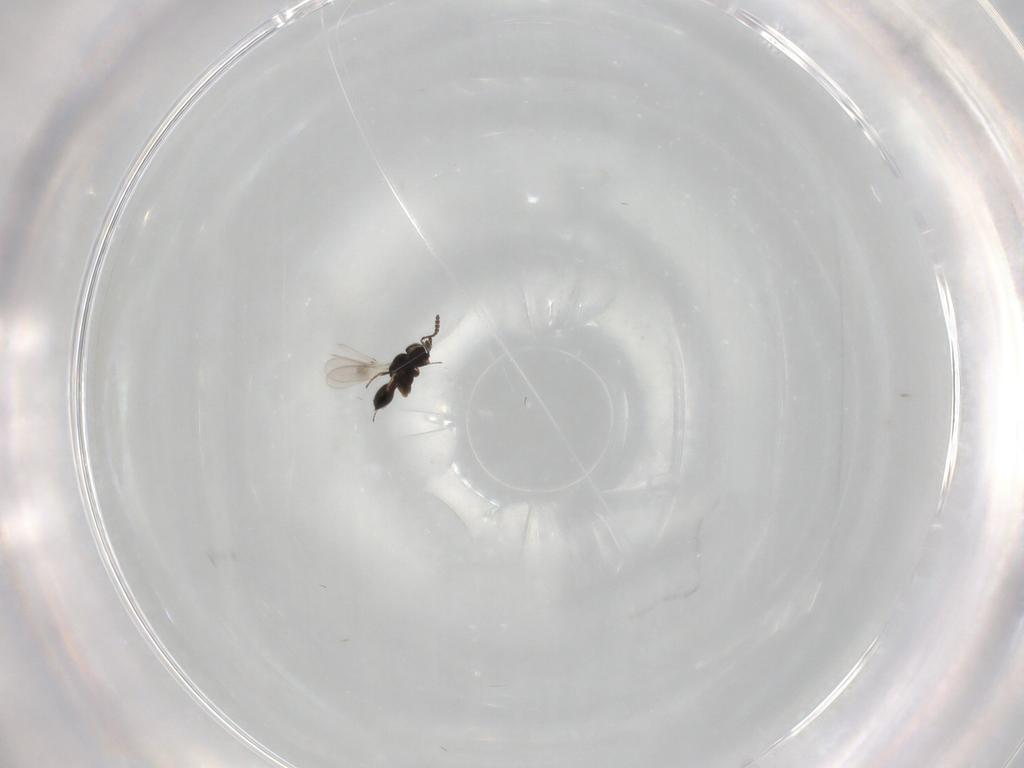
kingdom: Animalia
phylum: Arthropoda
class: Insecta
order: Hymenoptera
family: Scelionidae
